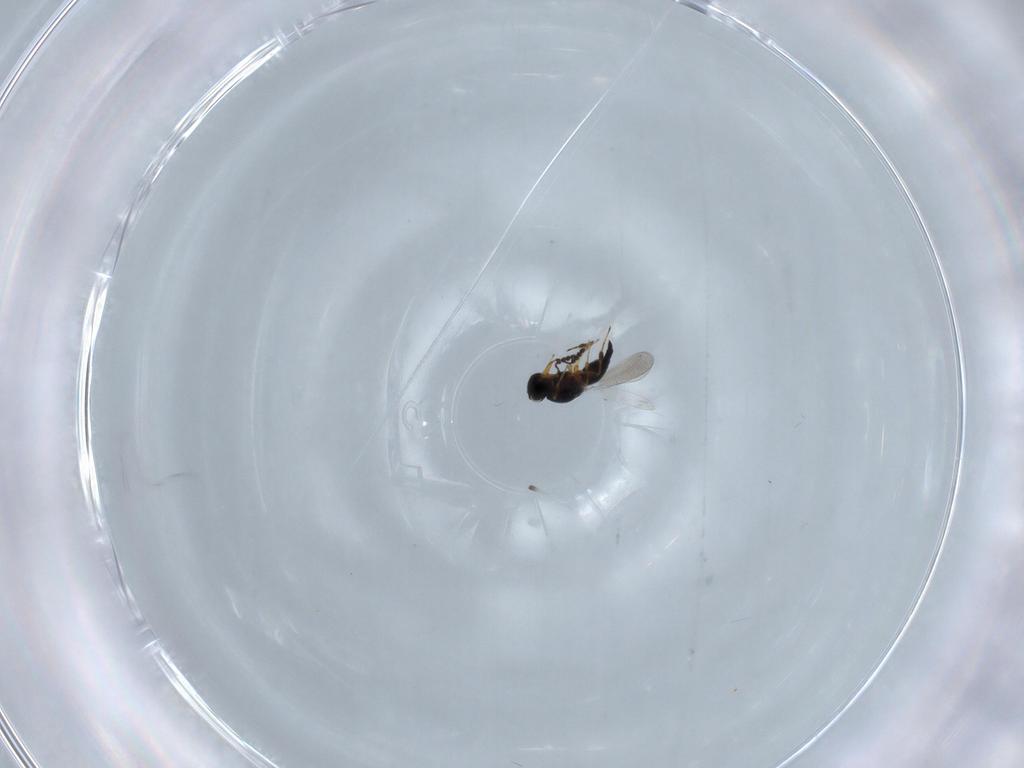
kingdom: Animalia
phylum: Arthropoda
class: Insecta
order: Hymenoptera
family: Platygastridae
